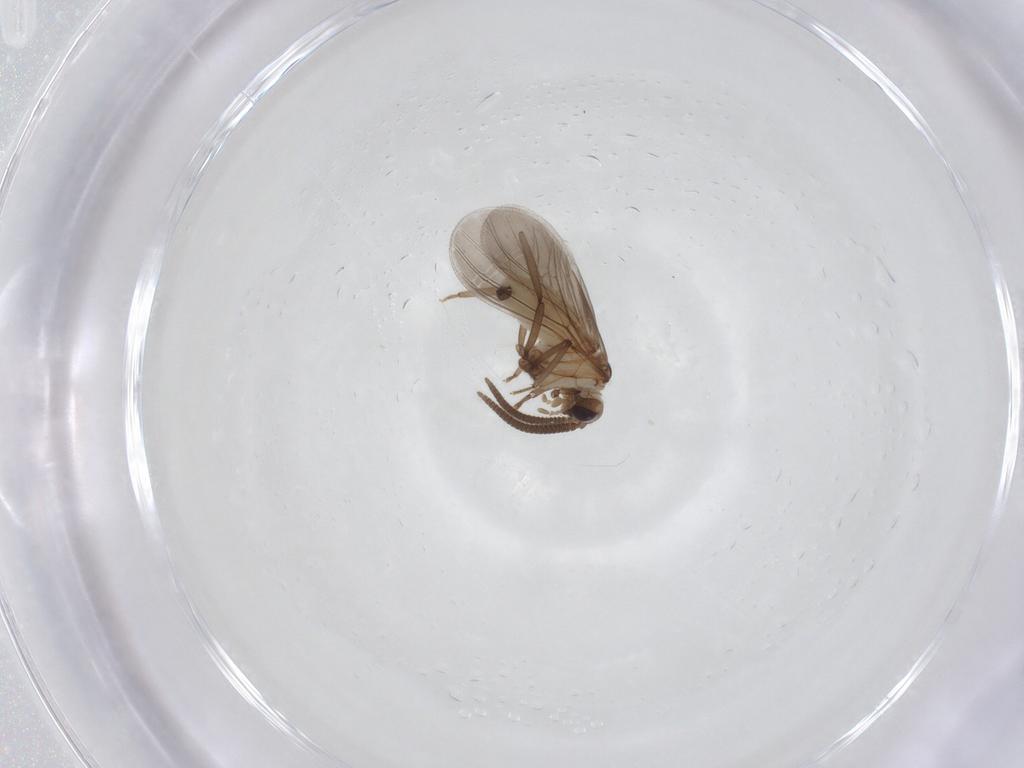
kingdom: Animalia
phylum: Arthropoda
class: Insecta
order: Neuroptera
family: Coniopterygidae
